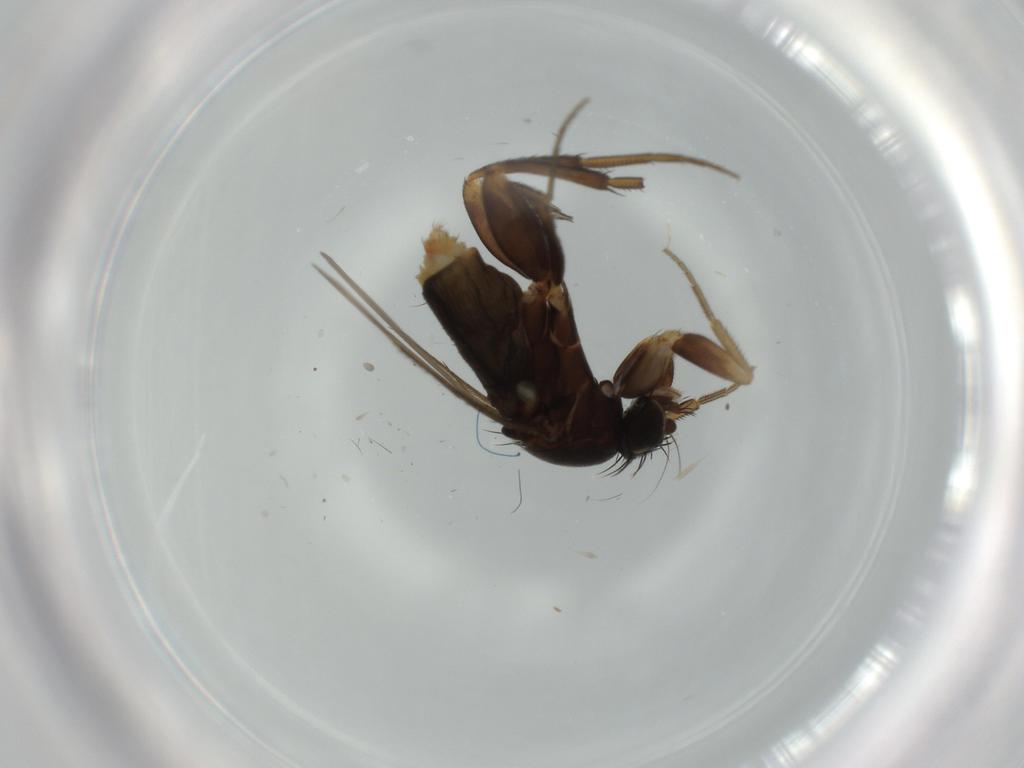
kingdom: Animalia
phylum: Arthropoda
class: Insecta
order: Diptera
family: Phoridae
